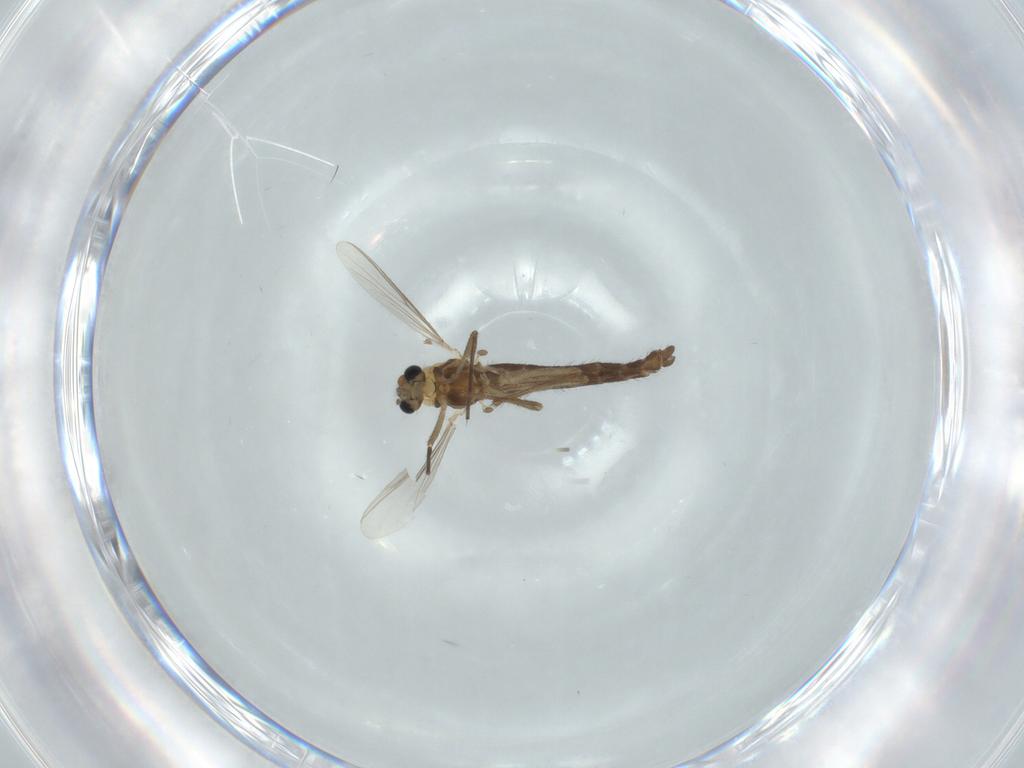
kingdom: Animalia
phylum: Arthropoda
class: Insecta
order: Diptera
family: Chironomidae
